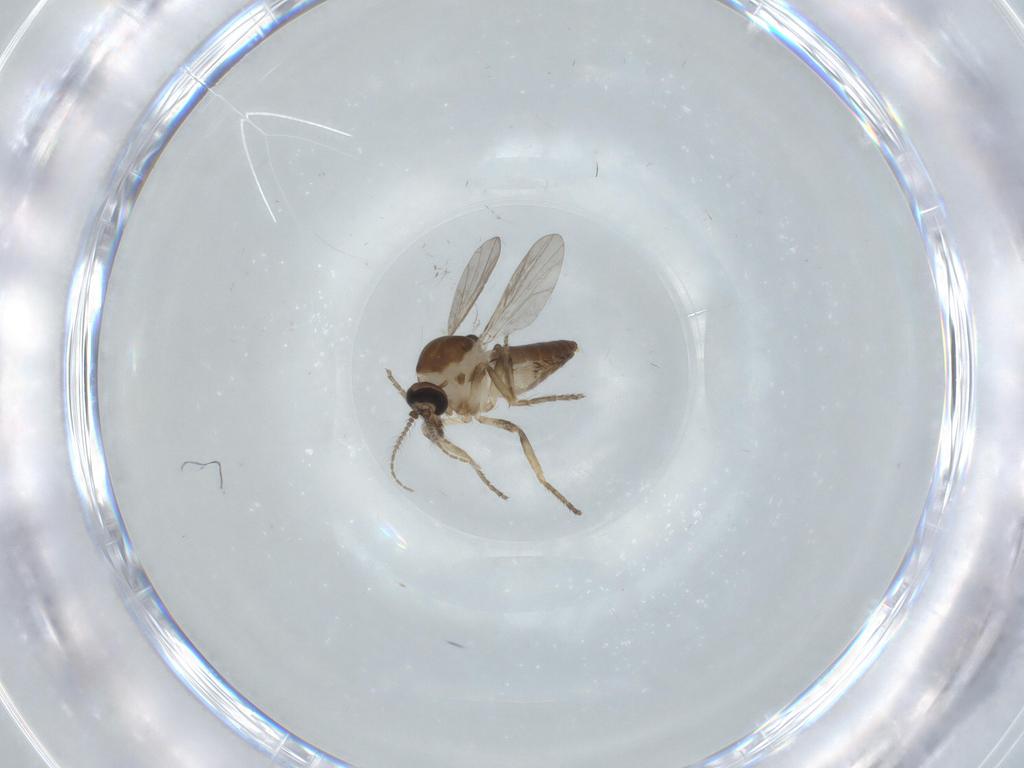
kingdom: Animalia
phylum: Arthropoda
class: Insecta
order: Diptera
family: Ceratopogonidae
